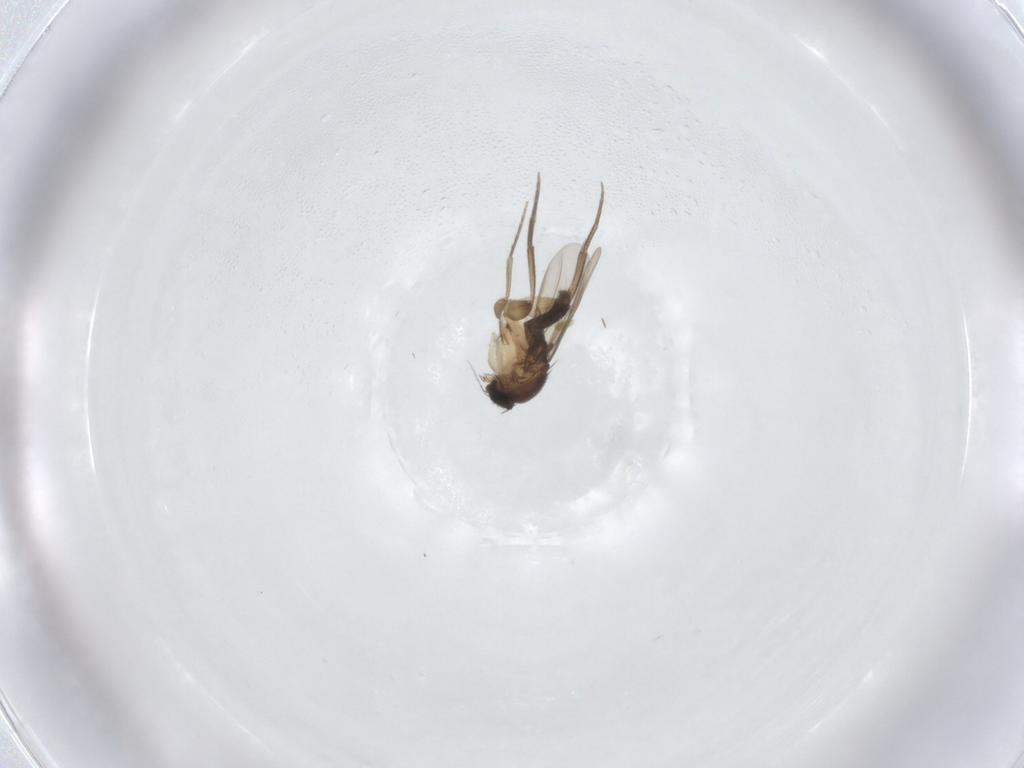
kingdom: Animalia
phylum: Arthropoda
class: Insecta
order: Diptera
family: Chironomidae
